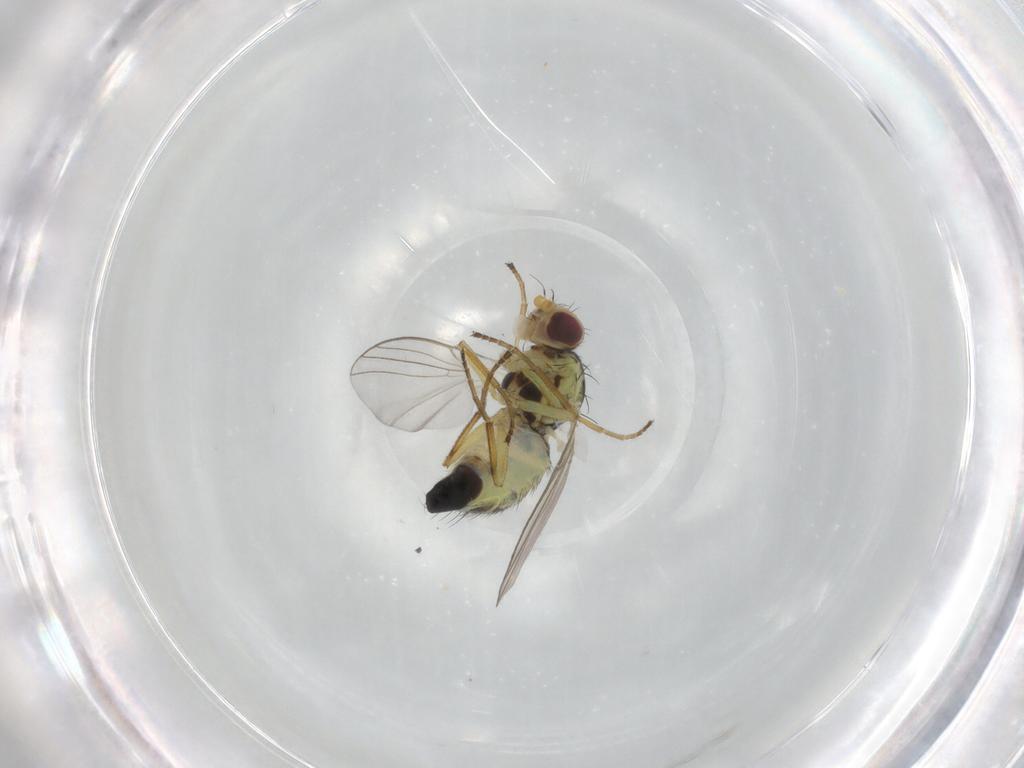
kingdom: Animalia
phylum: Arthropoda
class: Insecta
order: Diptera
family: Agromyzidae
